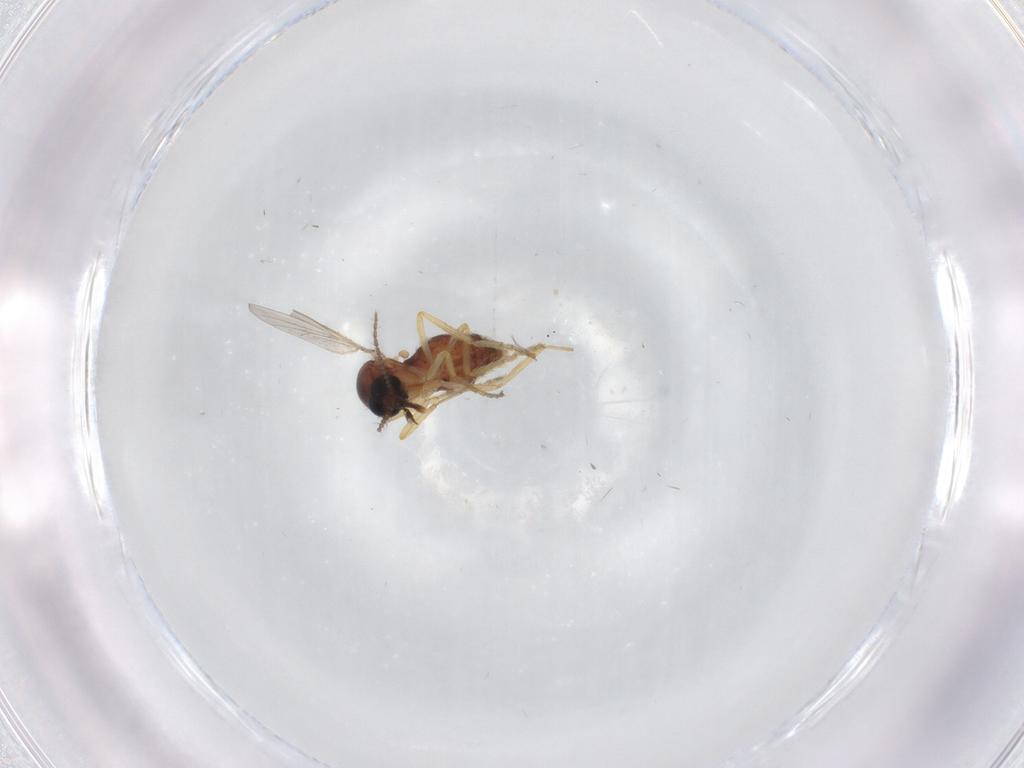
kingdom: Animalia
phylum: Arthropoda
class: Insecta
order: Diptera
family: Ceratopogonidae
